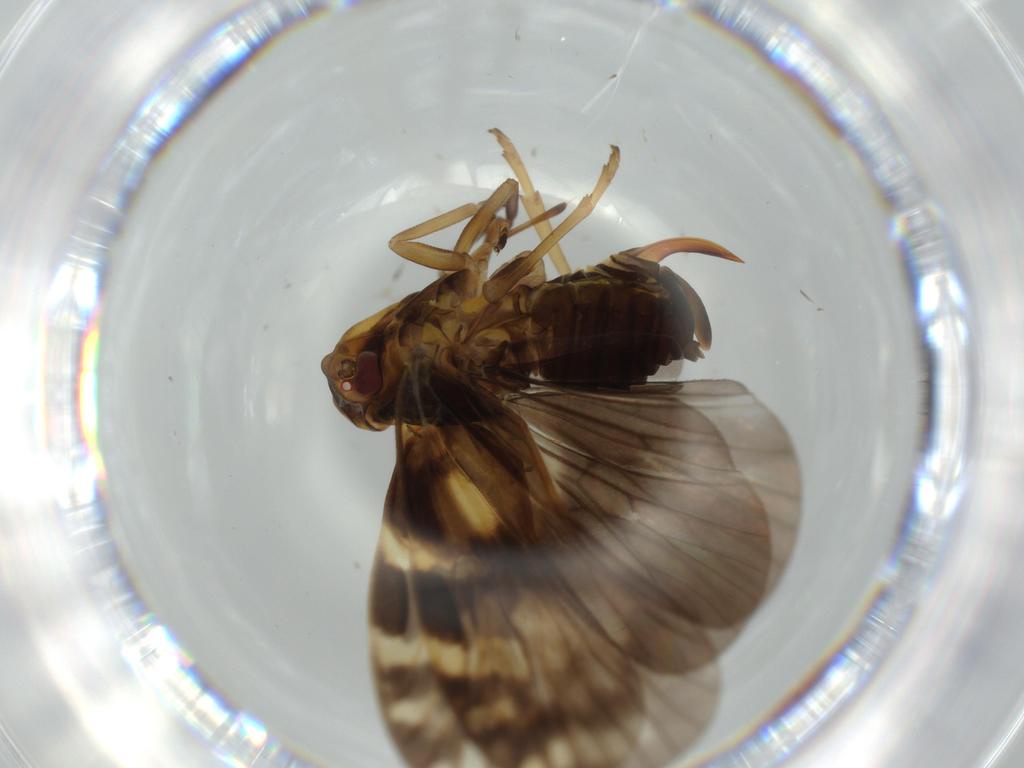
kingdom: Animalia
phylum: Arthropoda
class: Insecta
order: Hemiptera
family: Cixiidae
